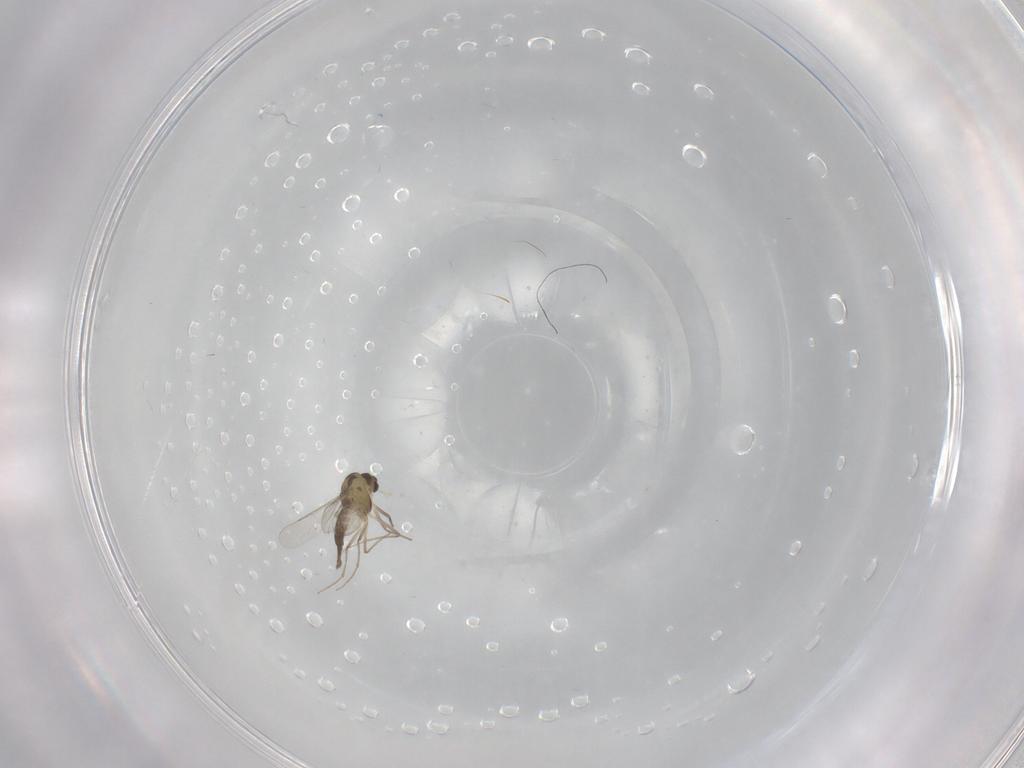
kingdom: Animalia
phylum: Arthropoda
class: Insecta
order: Diptera
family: Chironomidae
